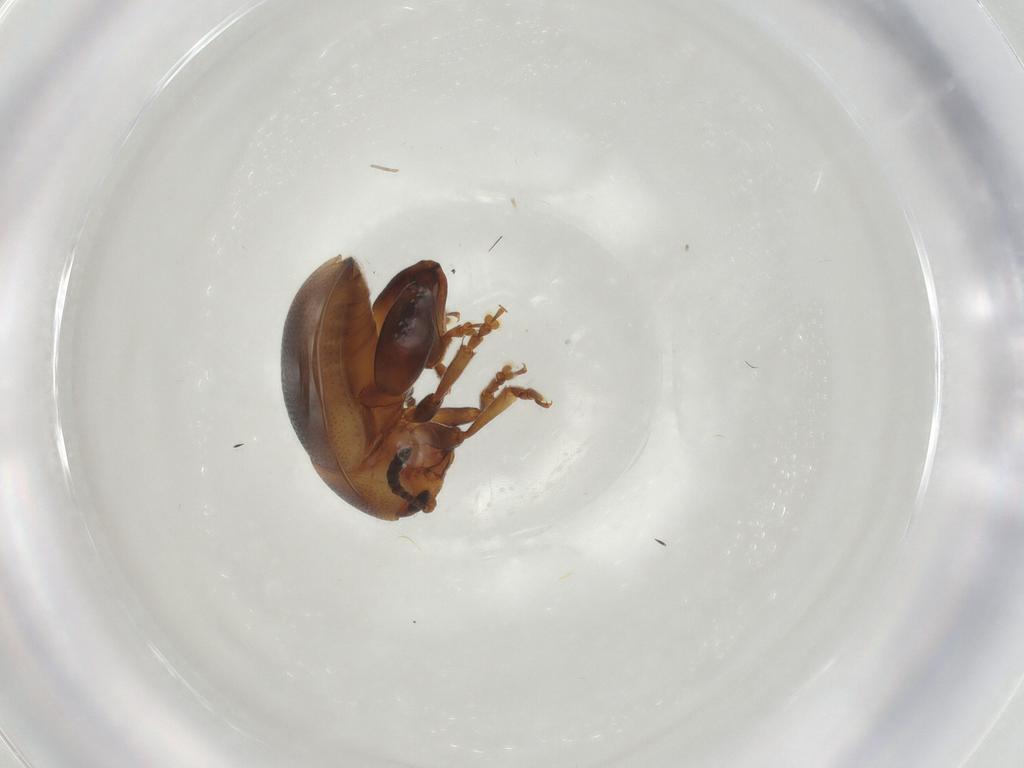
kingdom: Animalia
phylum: Arthropoda
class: Insecta
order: Coleoptera
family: Chrysomelidae
